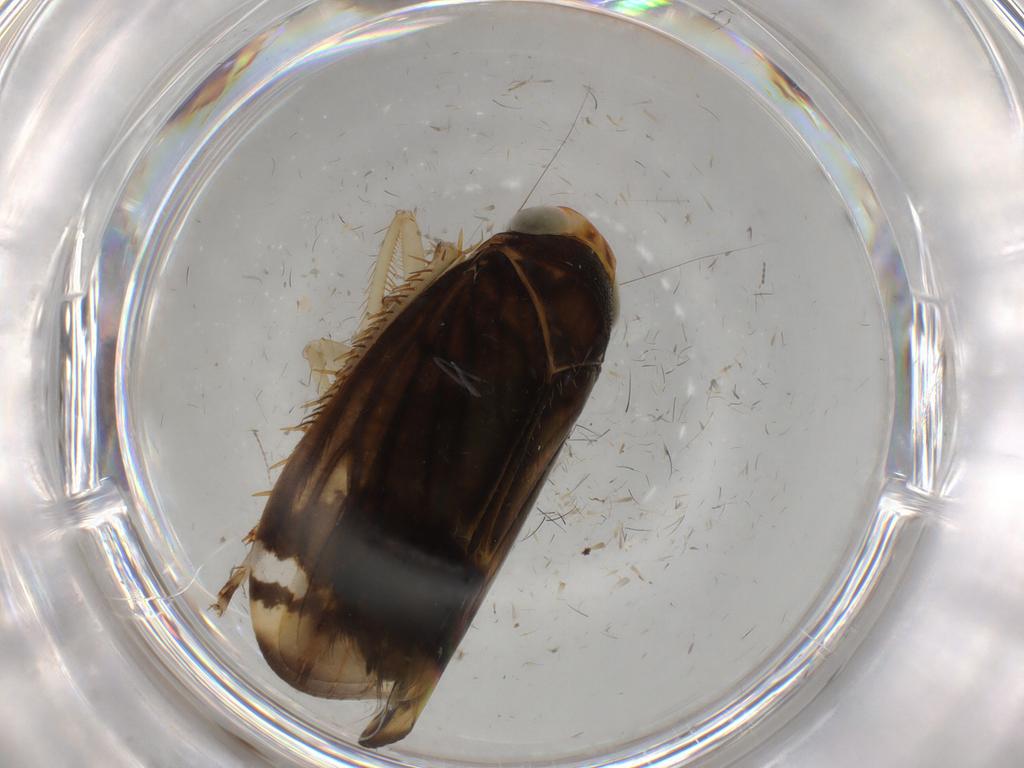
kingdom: Animalia
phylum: Arthropoda
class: Insecta
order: Hemiptera
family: Cicadellidae
